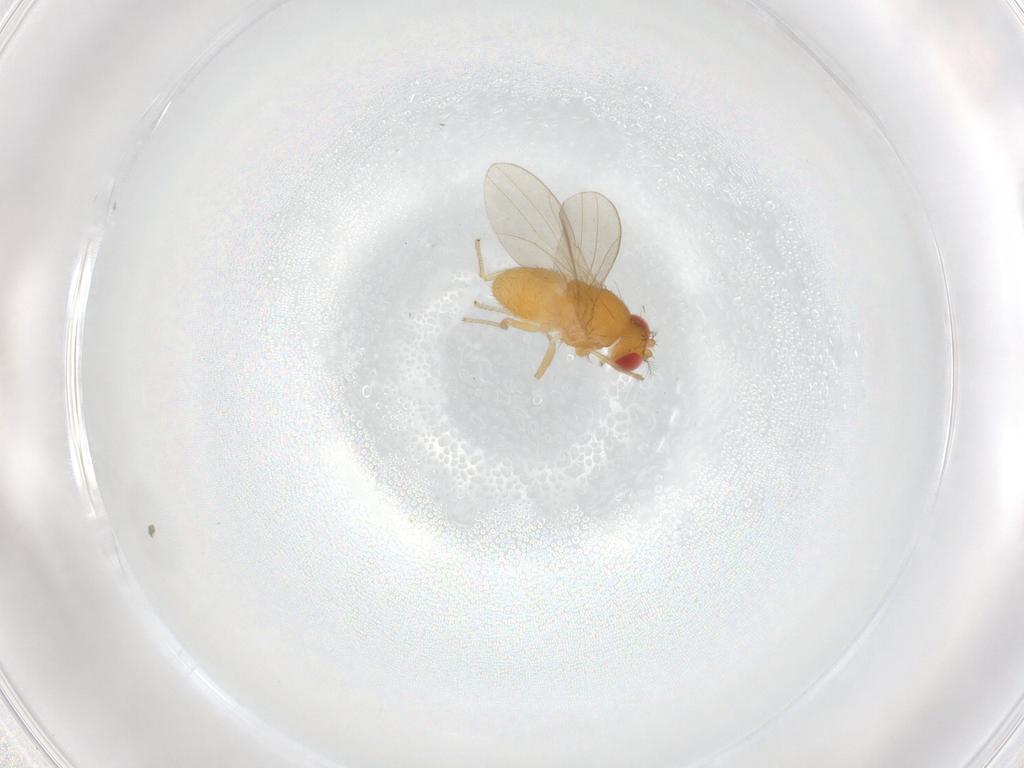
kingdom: Animalia
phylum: Arthropoda
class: Insecta
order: Diptera
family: Drosophilidae
